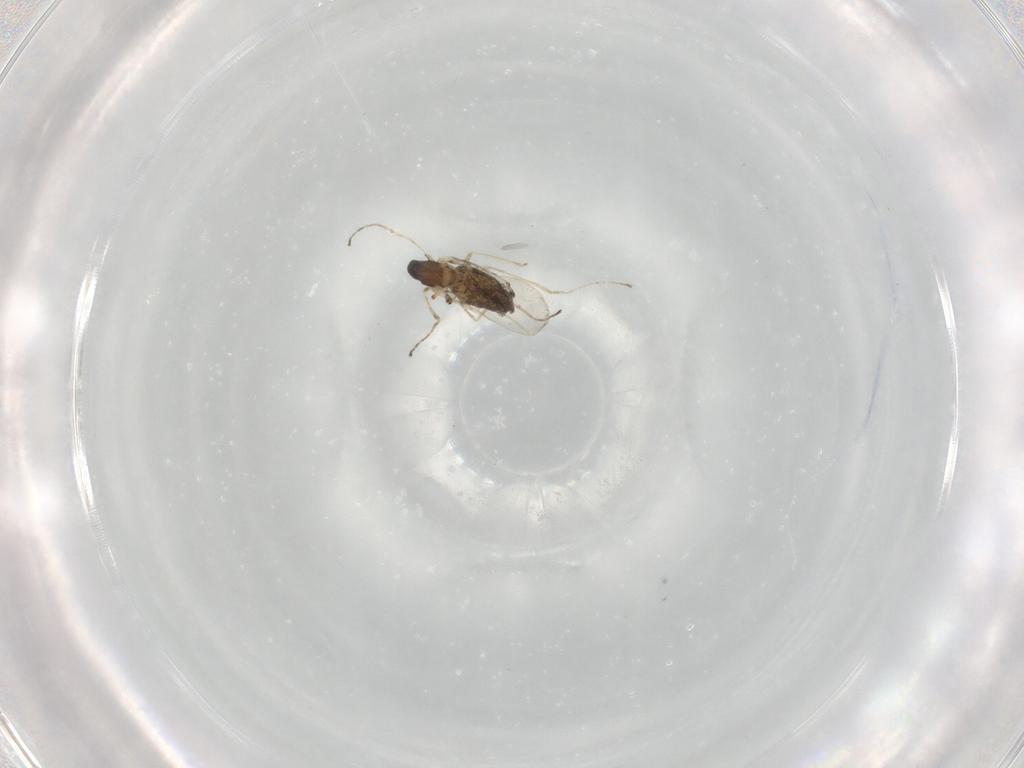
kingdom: Animalia
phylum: Arthropoda
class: Insecta
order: Diptera
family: Cecidomyiidae
